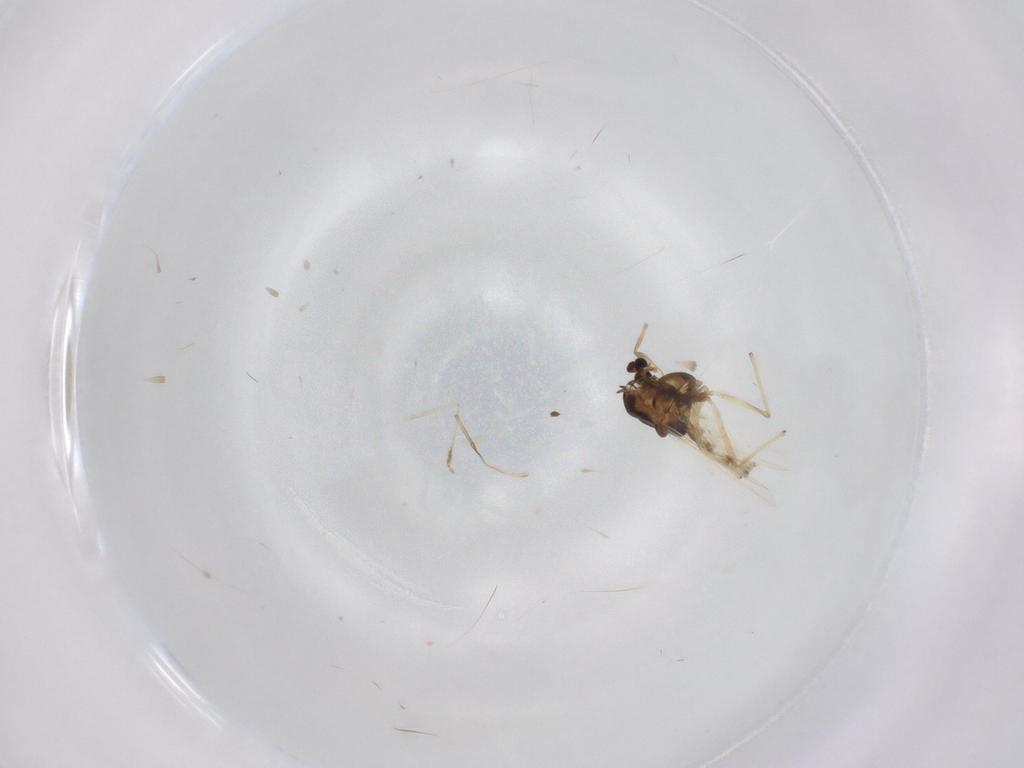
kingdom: Animalia
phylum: Arthropoda
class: Insecta
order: Diptera
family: Chironomidae
